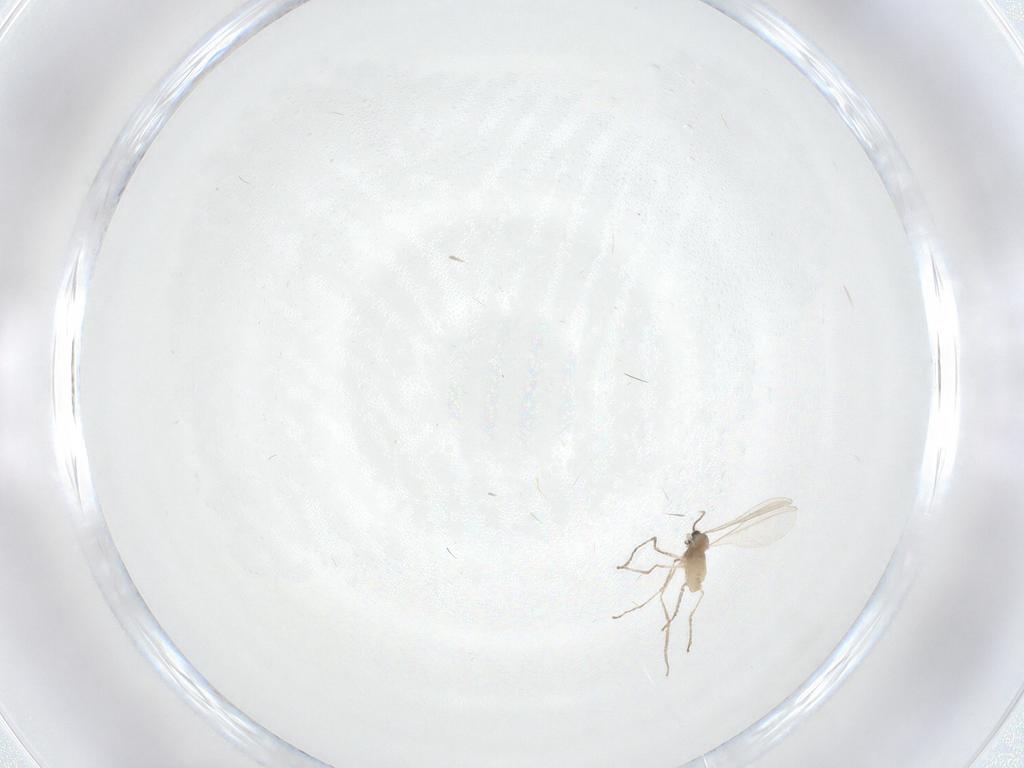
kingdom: Animalia
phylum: Arthropoda
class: Insecta
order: Diptera
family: Cecidomyiidae
